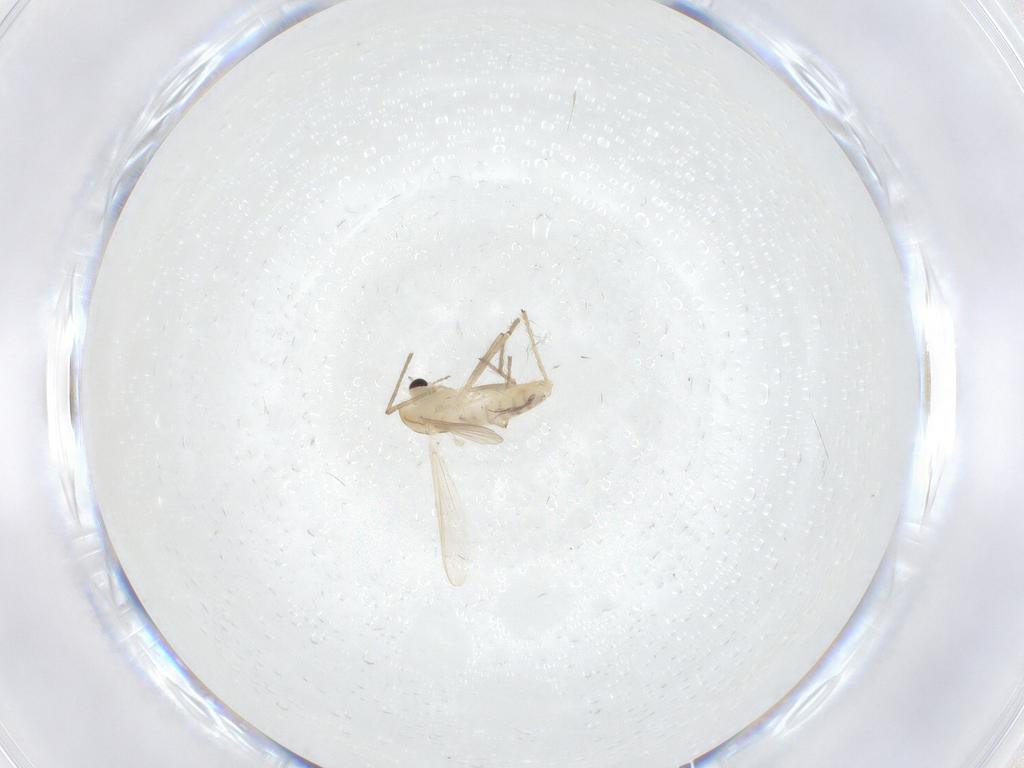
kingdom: Animalia
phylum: Arthropoda
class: Insecta
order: Diptera
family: Chironomidae
